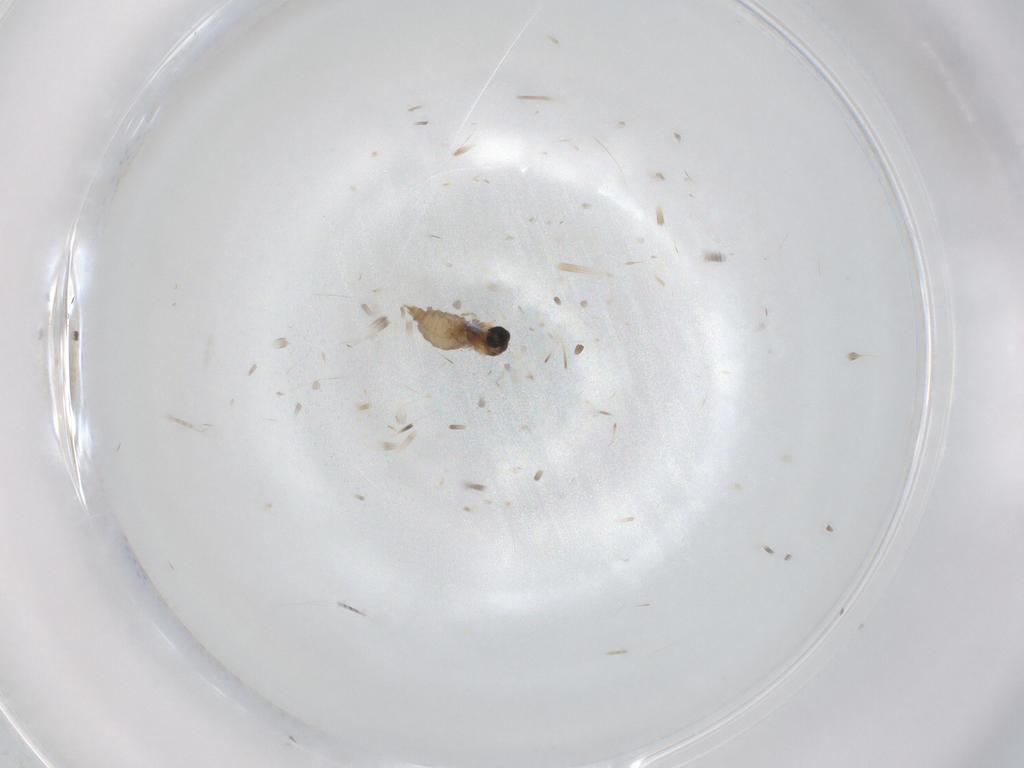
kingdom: Animalia
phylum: Arthropoda
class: Insecta
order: Diptera
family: Cecidomyiidae
